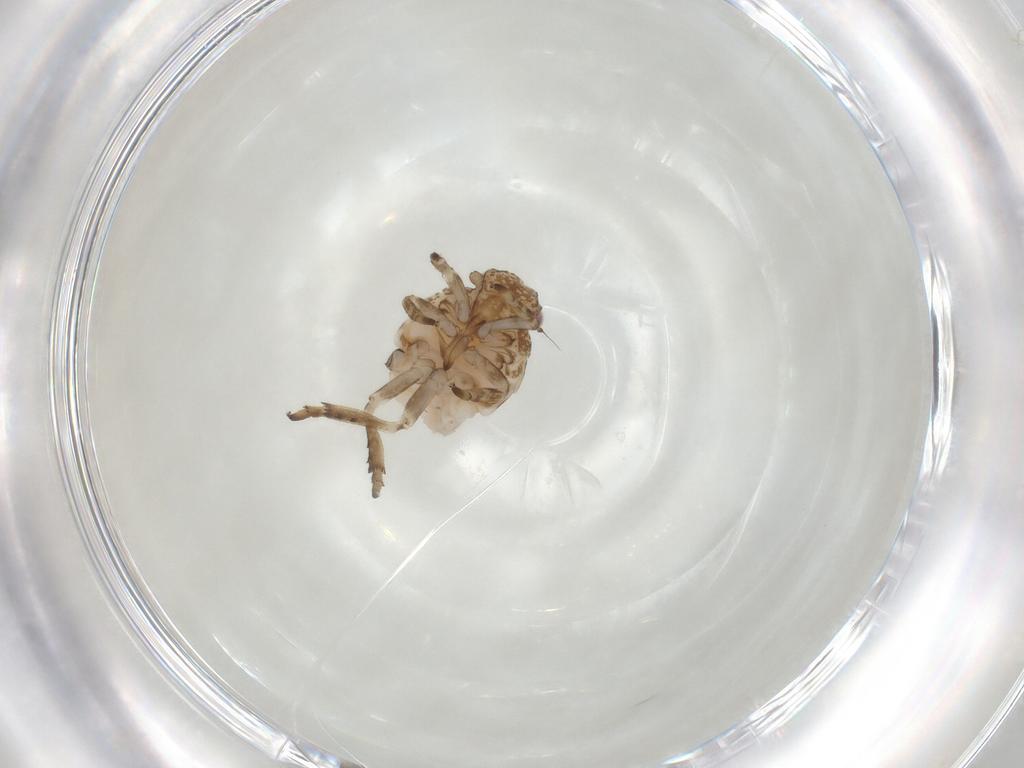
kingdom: Animalia
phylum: Arthropoda
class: Insecta
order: Hemiptera
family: Ricaniidae
